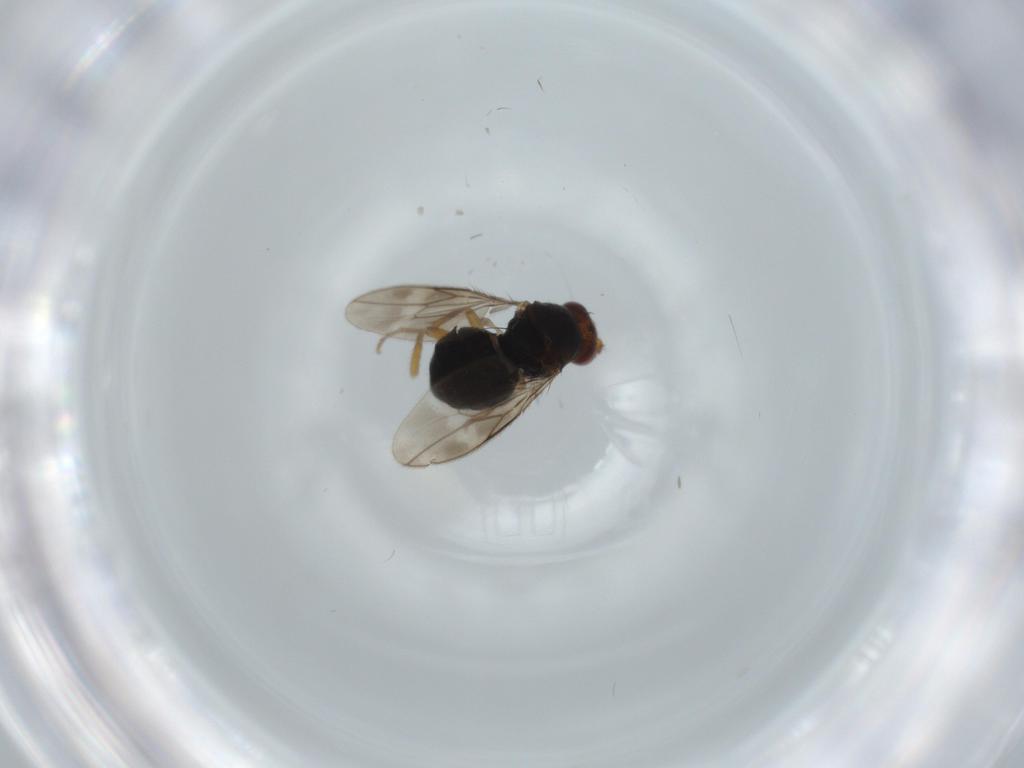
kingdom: Animalia
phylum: Arthropoda
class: Insecta
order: Diptera
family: Sphaeroceridae
